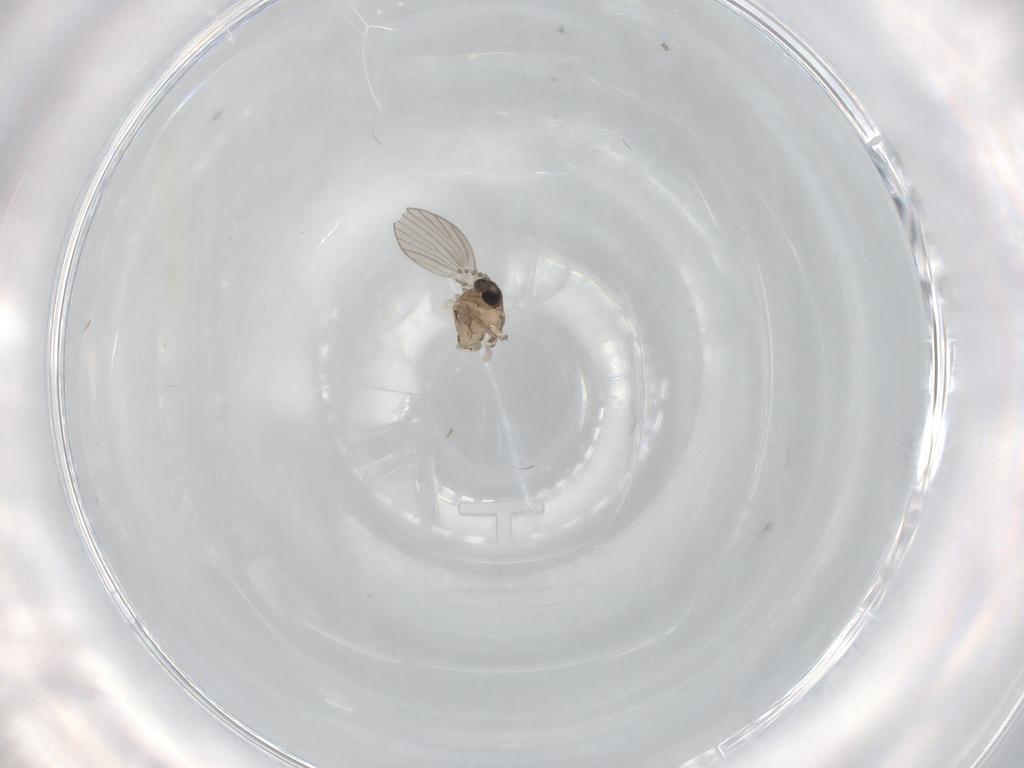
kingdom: Animalia
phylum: Arthropoda
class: Insecta
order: Diptera
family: Psychodidae
